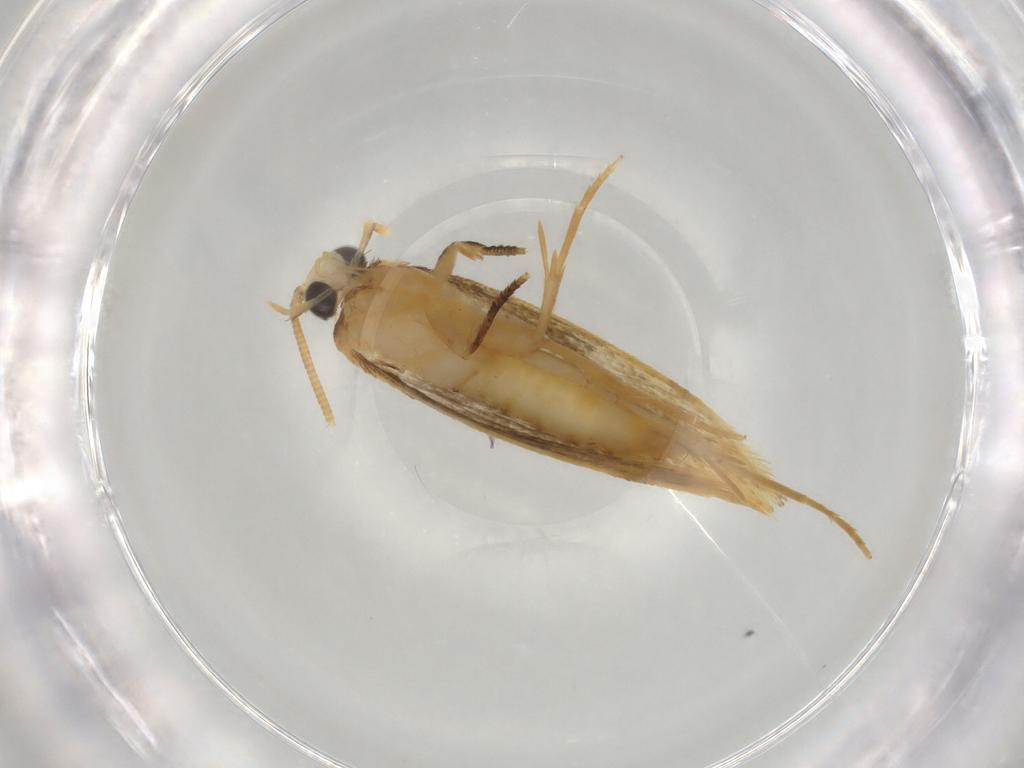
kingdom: Animalia
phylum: Arthropoda
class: Insecta
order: Lepidoptera
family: Tineidae
